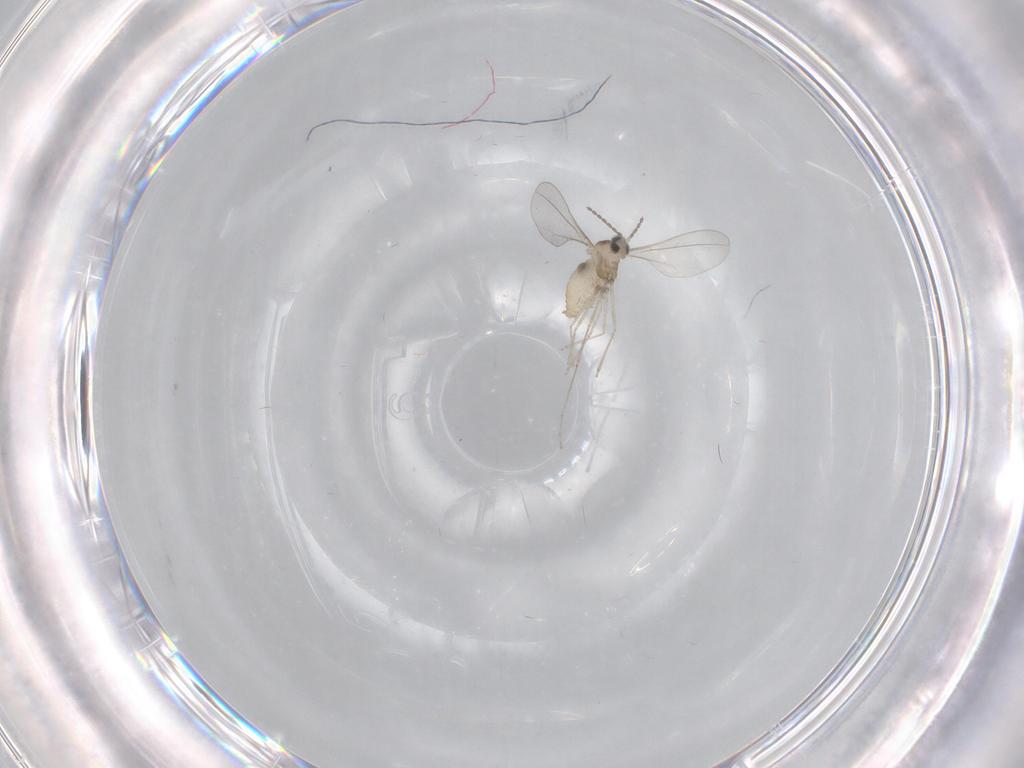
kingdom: Animalia
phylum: Arthropoda
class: Insecta
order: Diptera
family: Chironomidae
